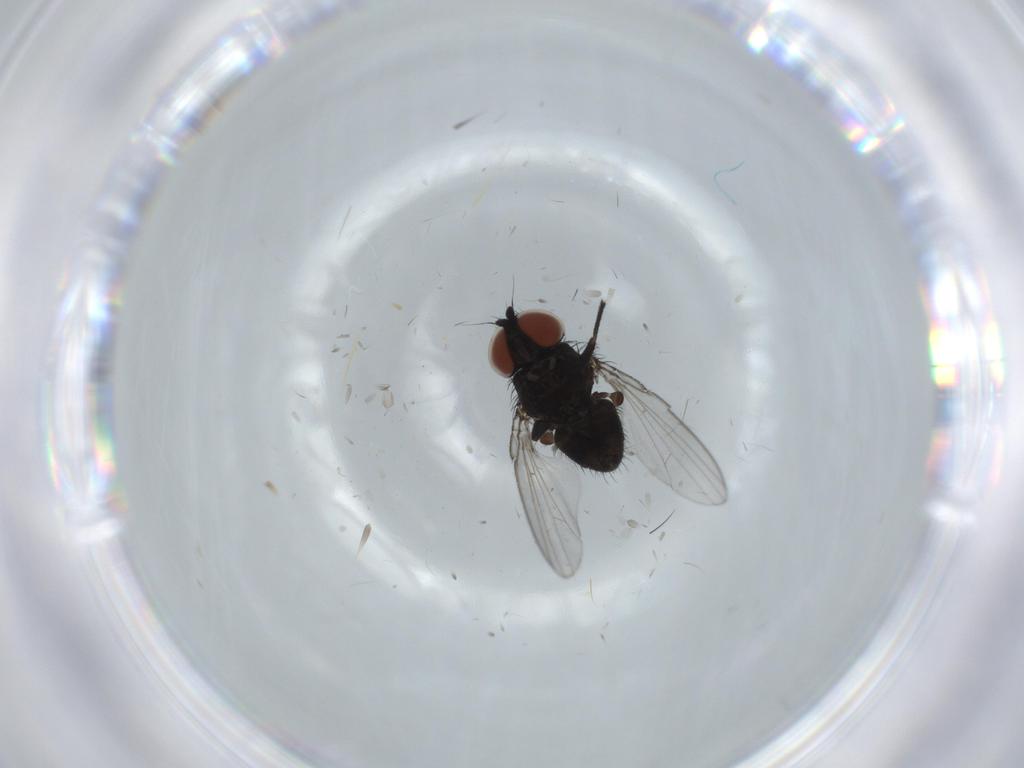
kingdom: Animalia
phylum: Arthropoda
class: Insecta
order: Diptera
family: Milichiidae
